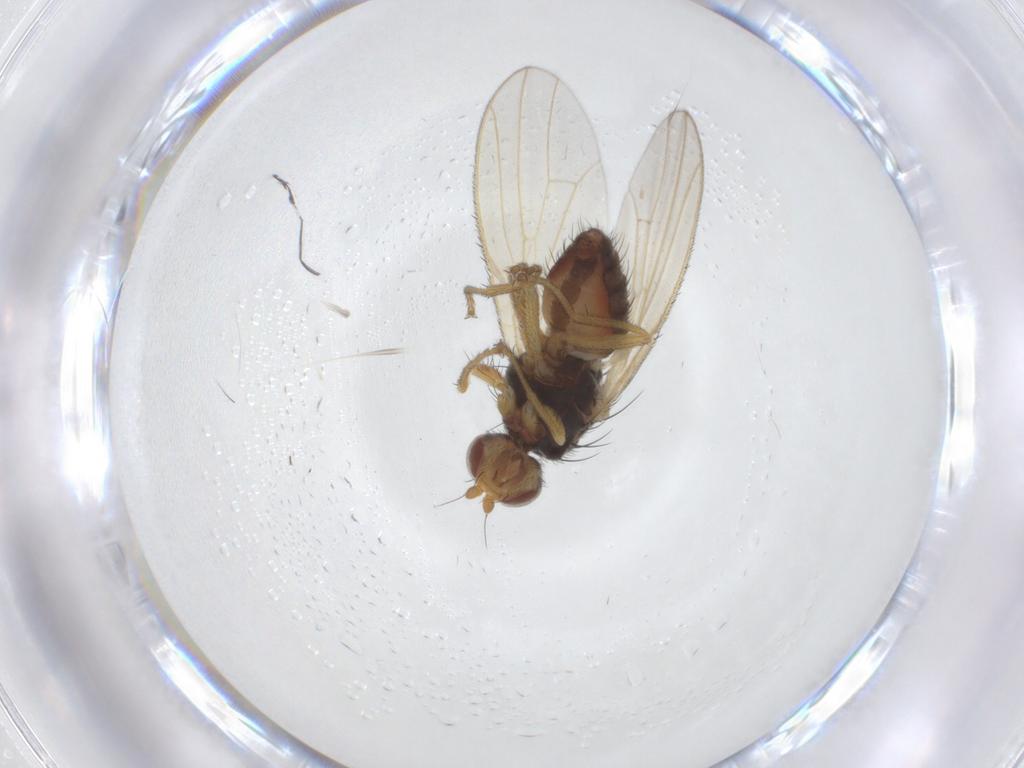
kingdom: Animalia
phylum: Arthropoda
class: Insecta
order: Diptera
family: Heleomyzidae
